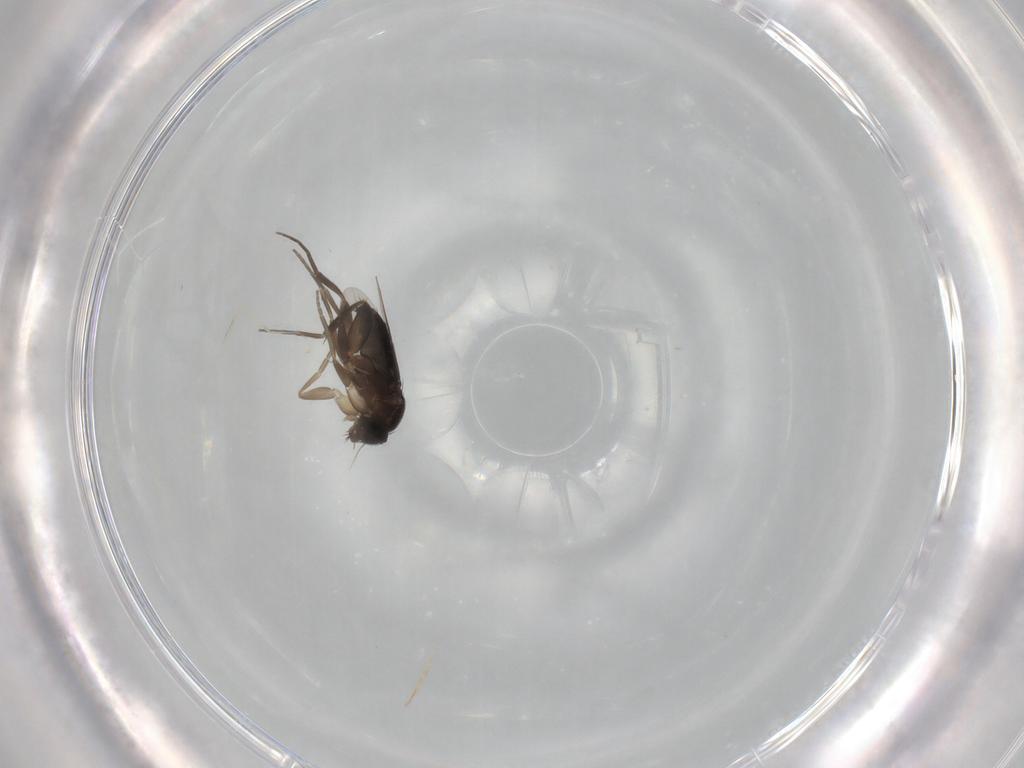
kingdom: Animalia
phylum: Arthropoda
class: Insecta
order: Diptera
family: Phoridae
